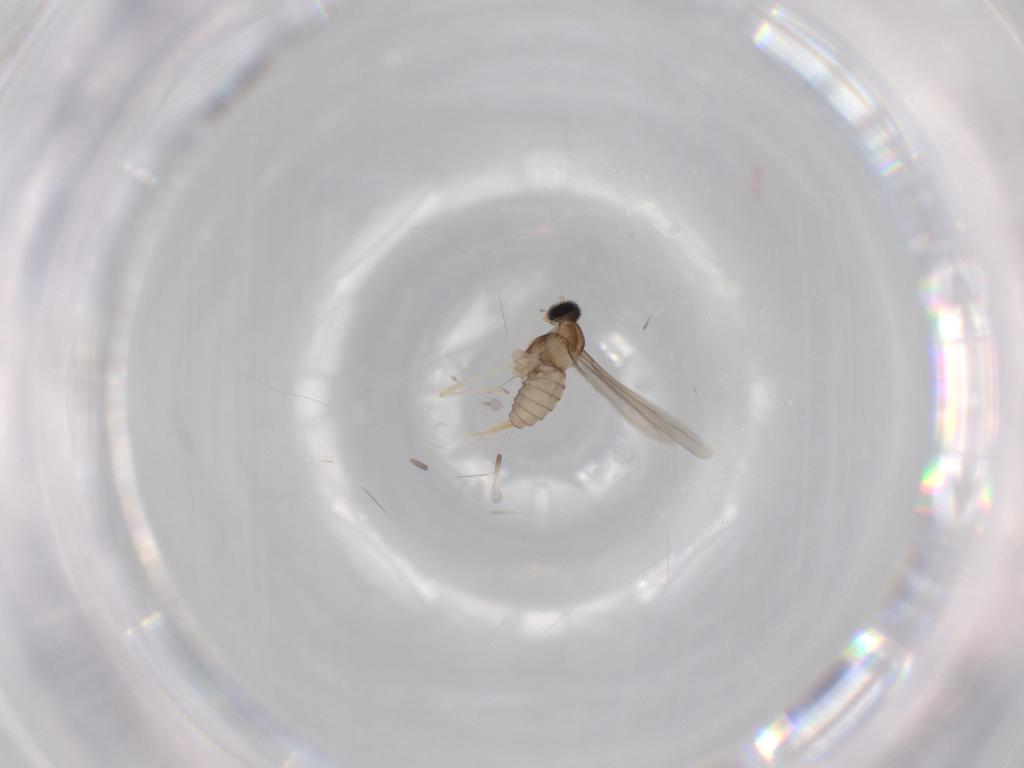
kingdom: Animalia
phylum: Arthropoda
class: Insecta
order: Diptera
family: Cecidomyiidae
